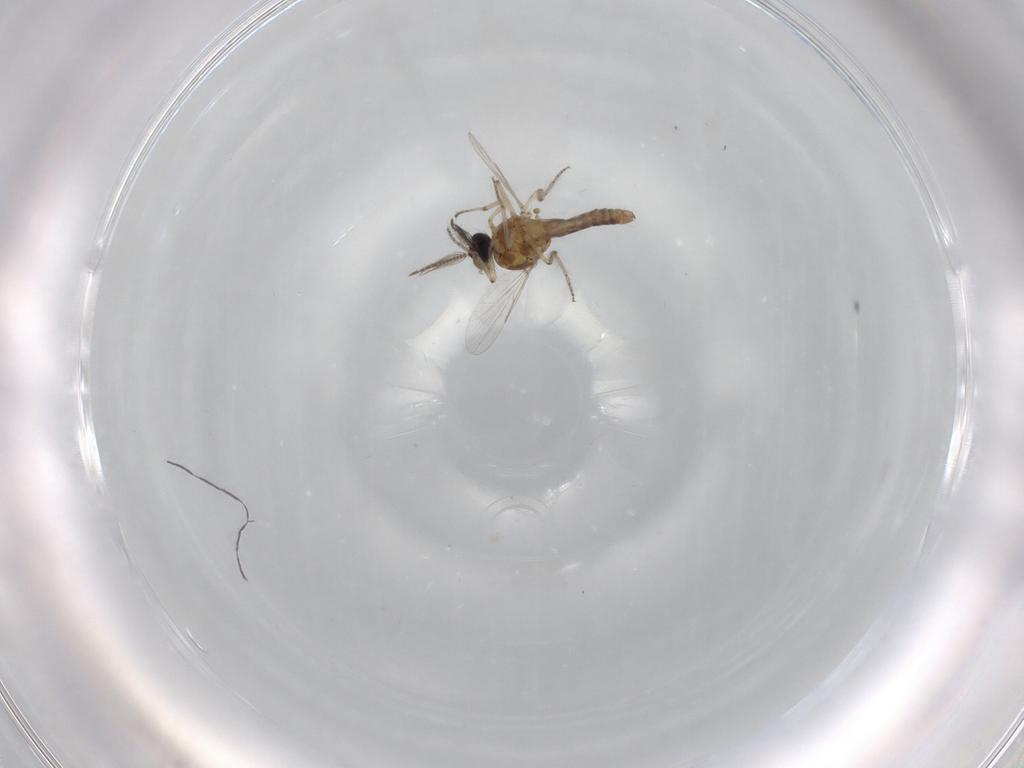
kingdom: Animalia
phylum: Arthropoda
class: Insecta
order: Diptera
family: Ceratopogonidae
